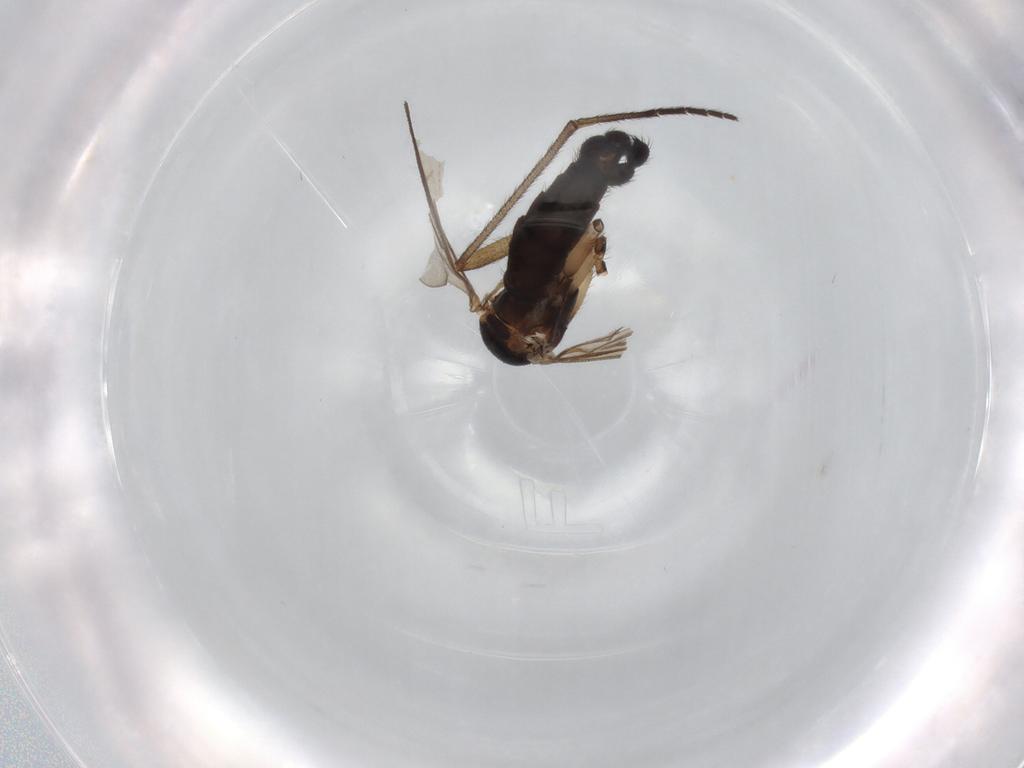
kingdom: Animalia
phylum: Arthropoda
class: Insecta
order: Diptera
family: Sciaridae
